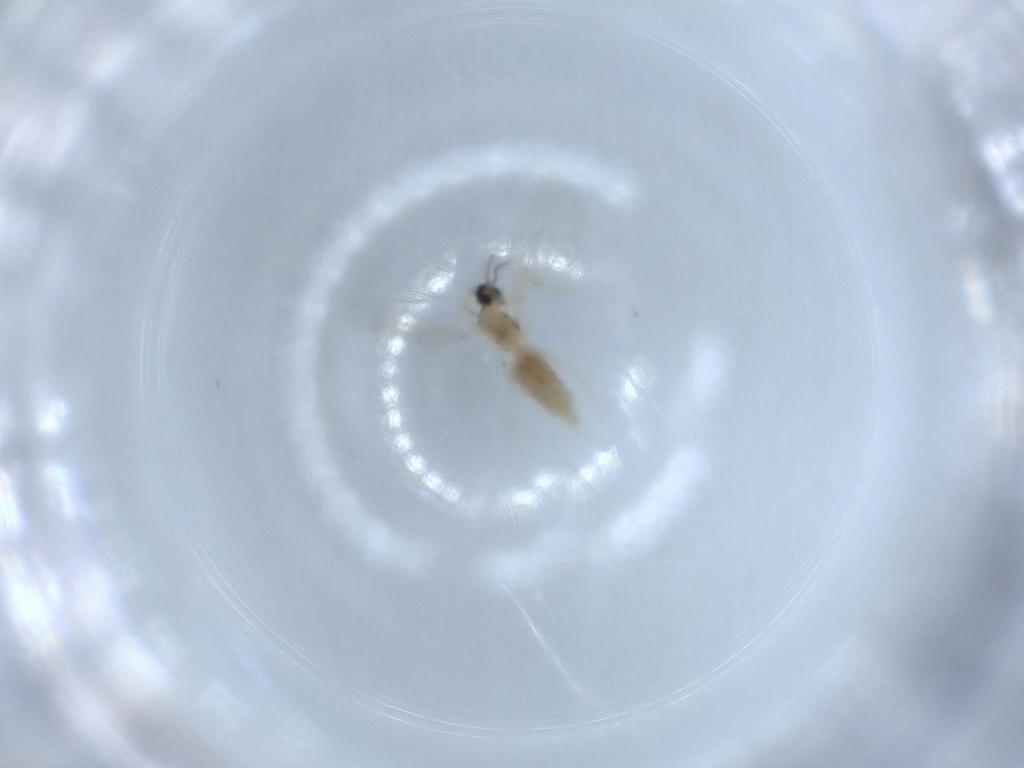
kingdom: Animalia
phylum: Arthropoda
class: Insecta
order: Diptera
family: Cecidomyiidae
